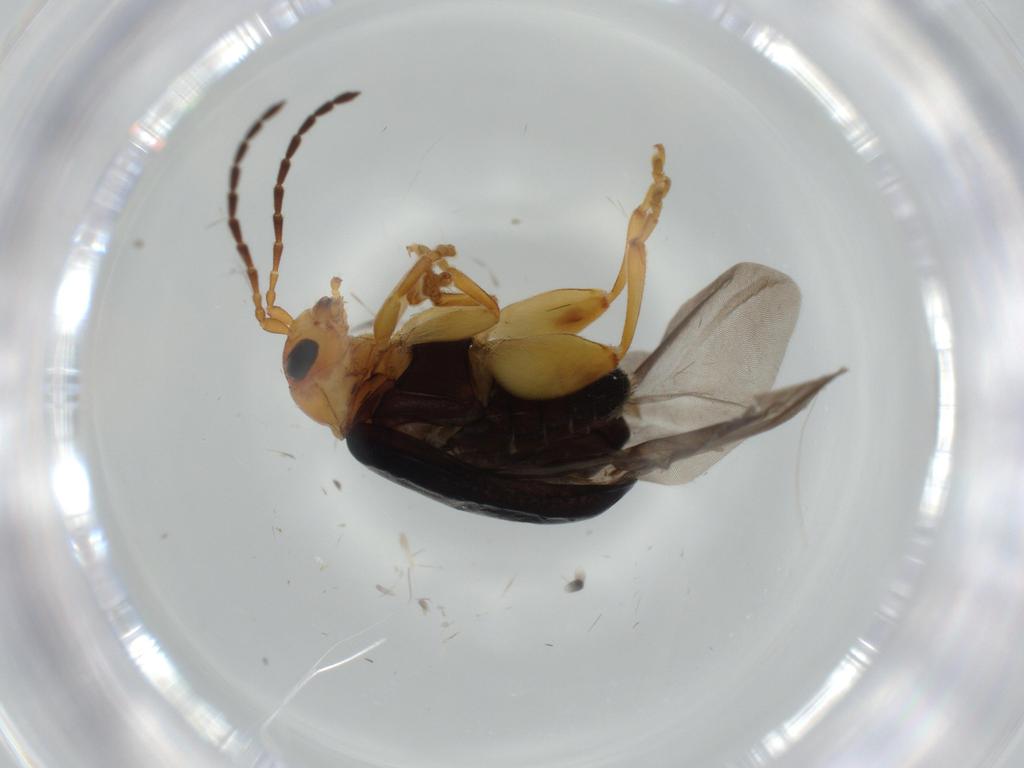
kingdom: Animalia
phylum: Arthropoda
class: Insecta
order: Coleoptera
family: Chrysomelidae
